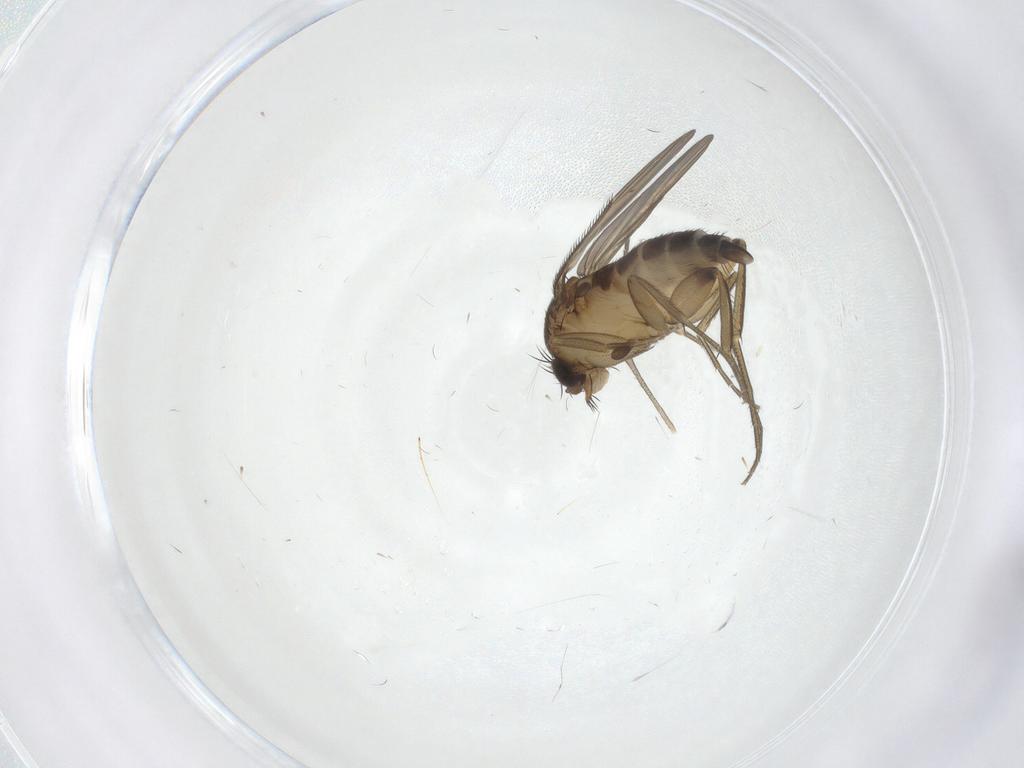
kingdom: Animalia
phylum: Arthropoda
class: Insecta
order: Diptera
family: Phoridae
